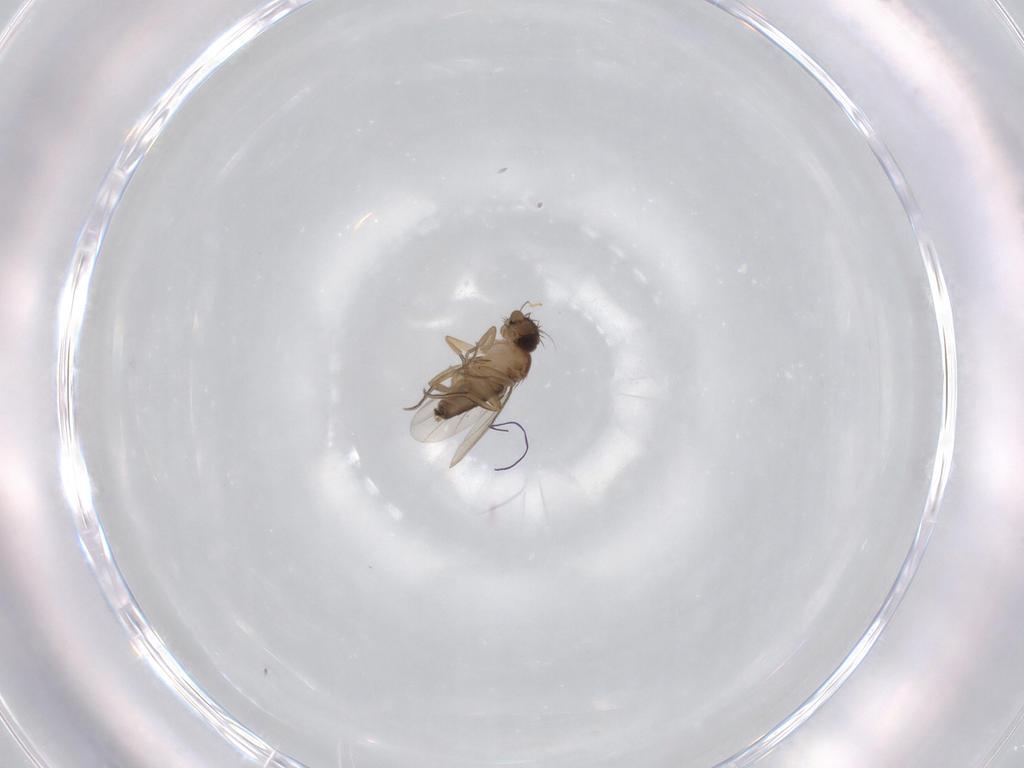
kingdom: Animalia
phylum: Arthropoda
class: Insecta
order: Diptera
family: Phoridae
